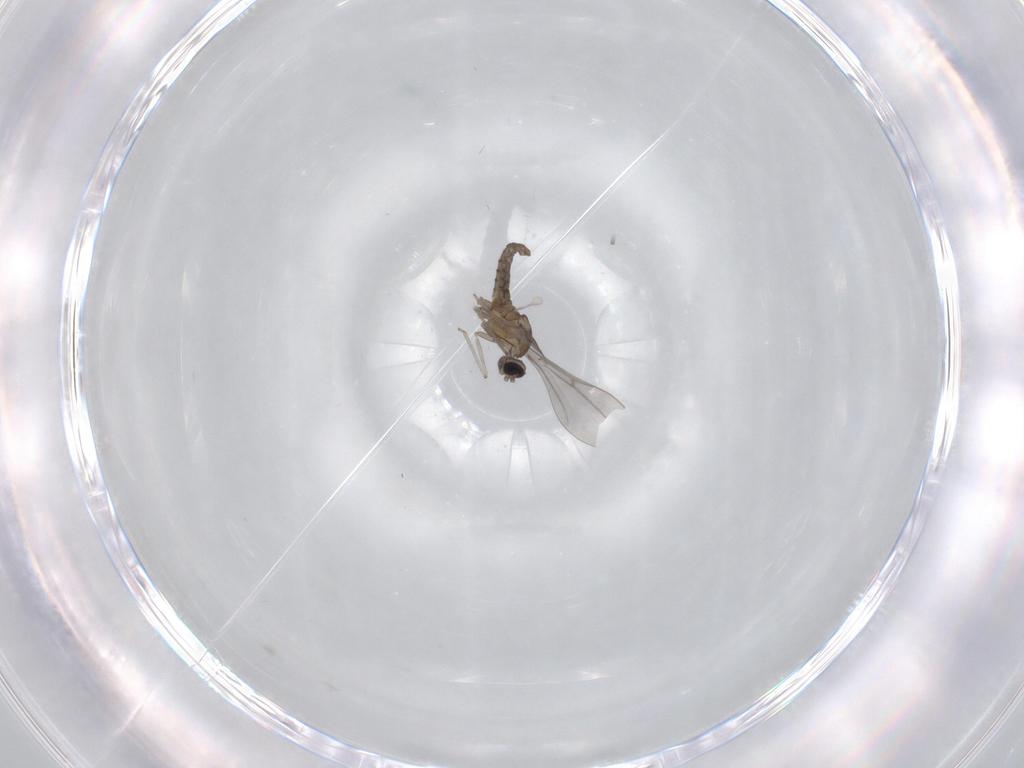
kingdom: Animalia
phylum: Arthropoda
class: Insecta
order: Diptera
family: Cecidomyiidae
